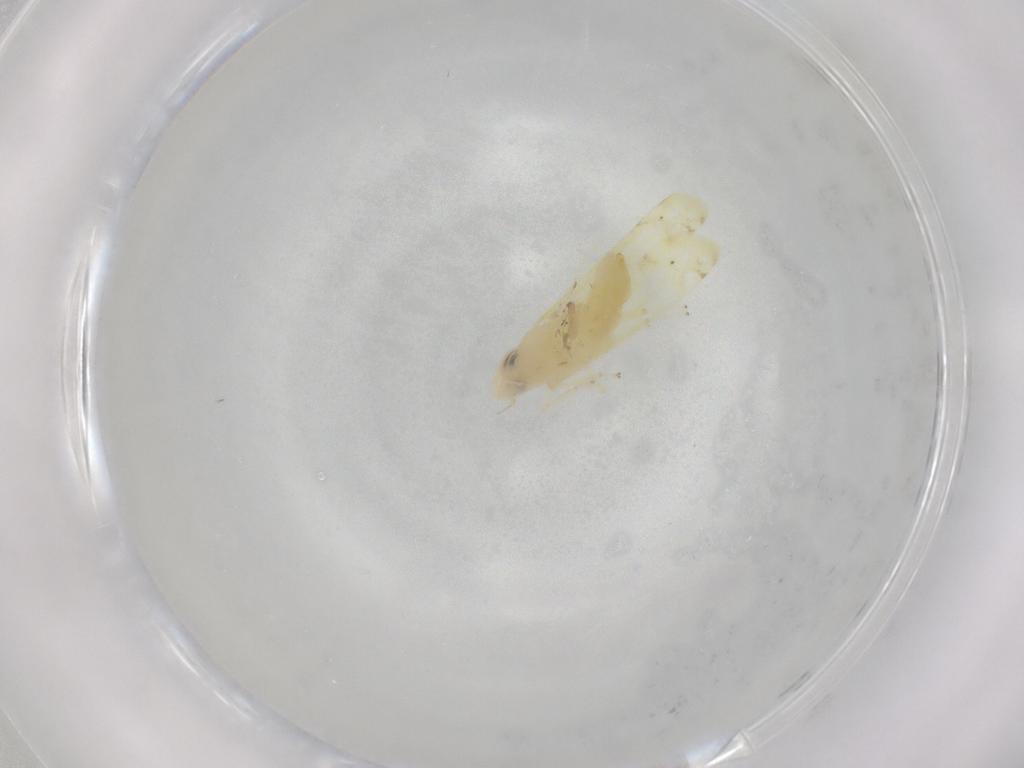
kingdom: Animalia
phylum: Arthropoda
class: Insecta
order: Hemiptera
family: Cicadellidae
